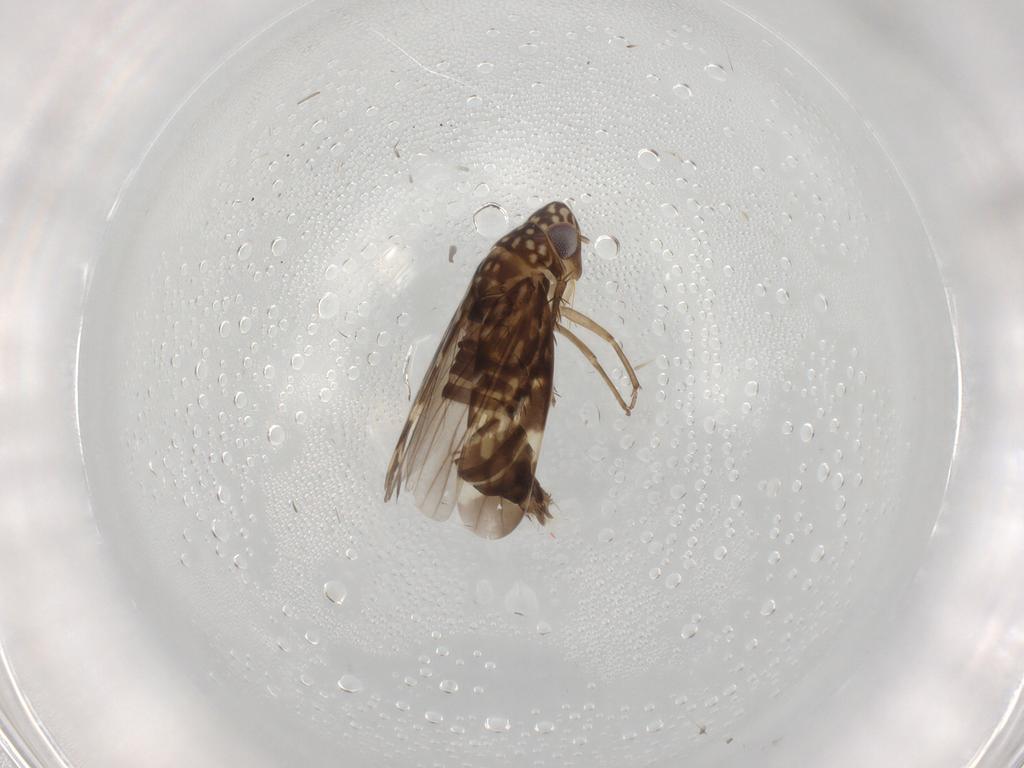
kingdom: Animalia
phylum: Arthropoda
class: Insecta
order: Hemiptera
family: Cicadellidae
